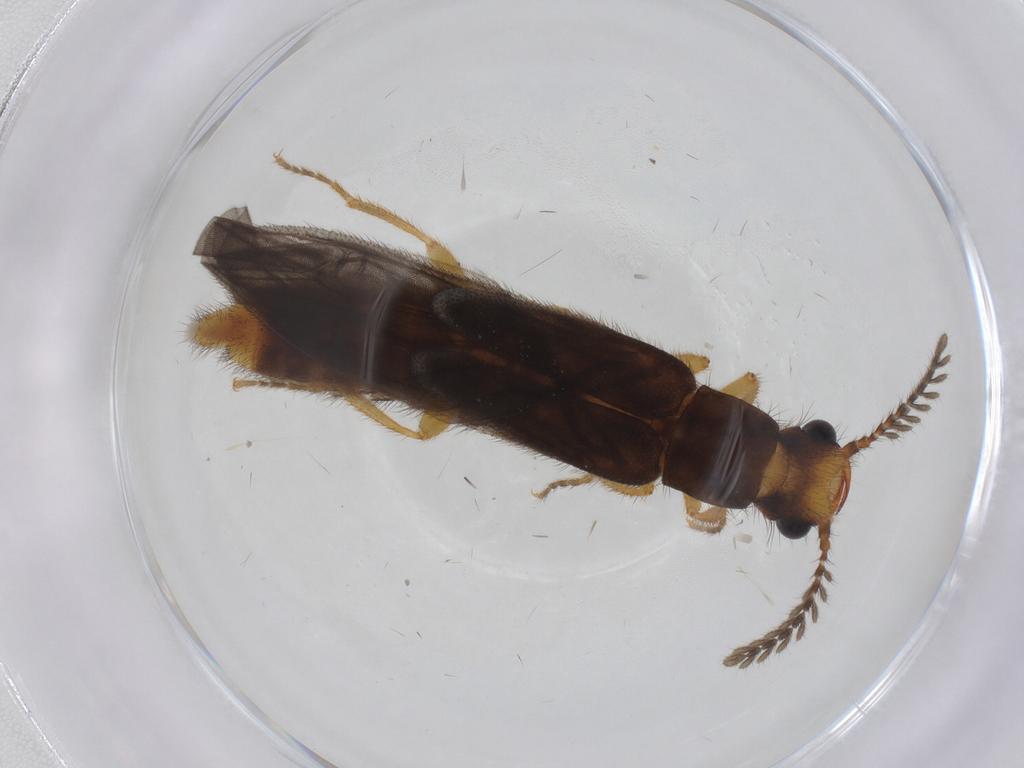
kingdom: Animalia
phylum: Arthropoda
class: Insecta
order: Coleoptera
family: Phengodidae
